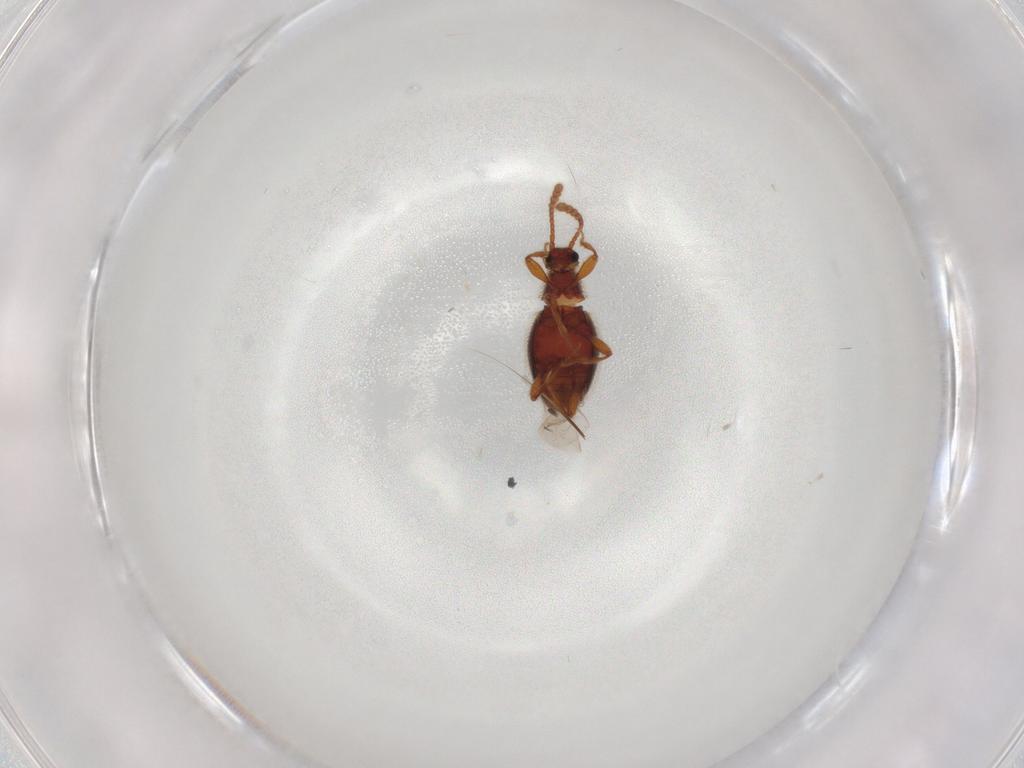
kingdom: Animalia
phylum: Arthropoda
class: Insecta
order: Coleoptera
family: Staphylinidae
